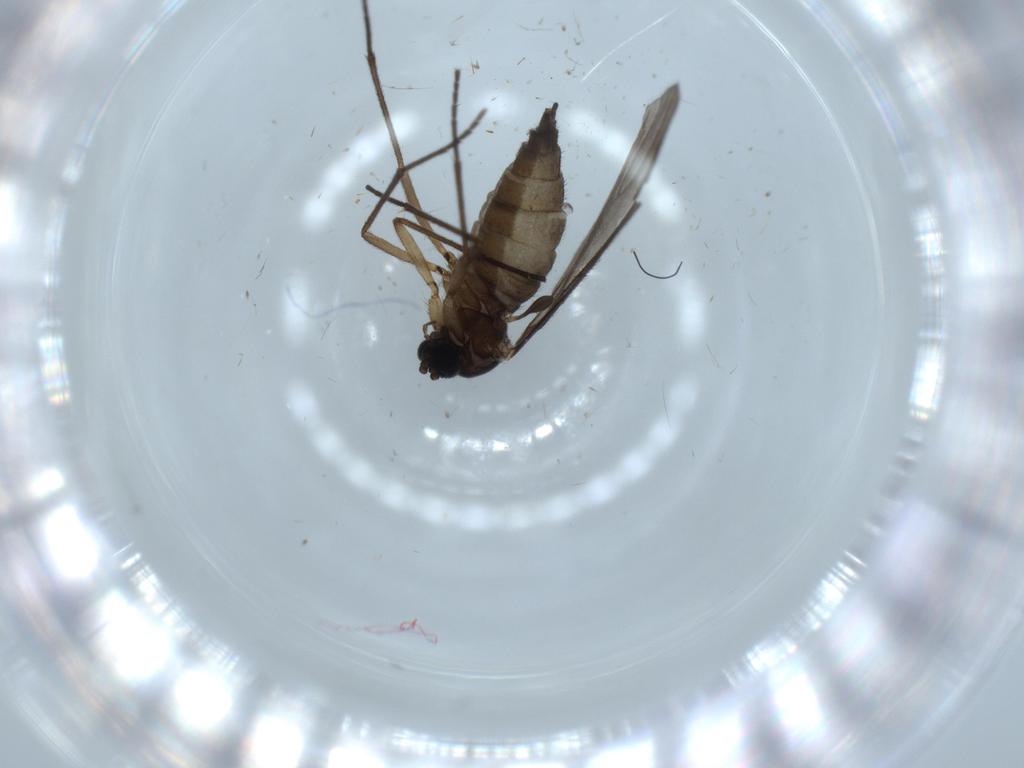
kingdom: Animalia
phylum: Arthropoda
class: Insecta
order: Diptera
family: Sciaridae
